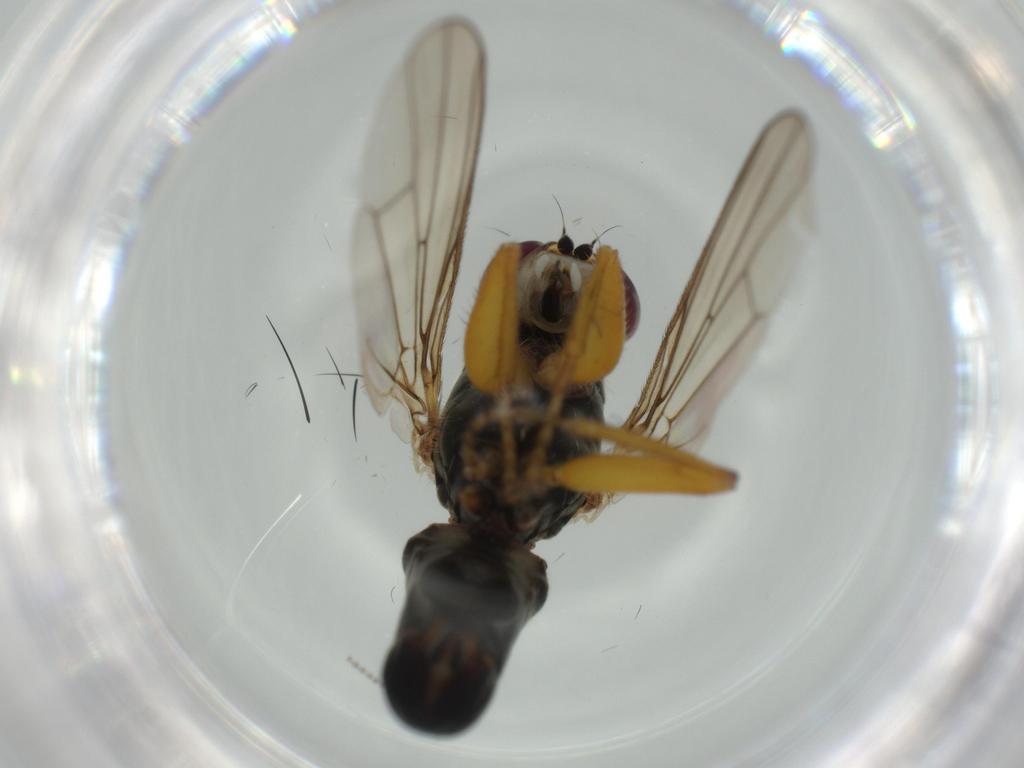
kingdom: Animalia
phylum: Arthropoda
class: Insecta
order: Diptera
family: Scathophagidae
